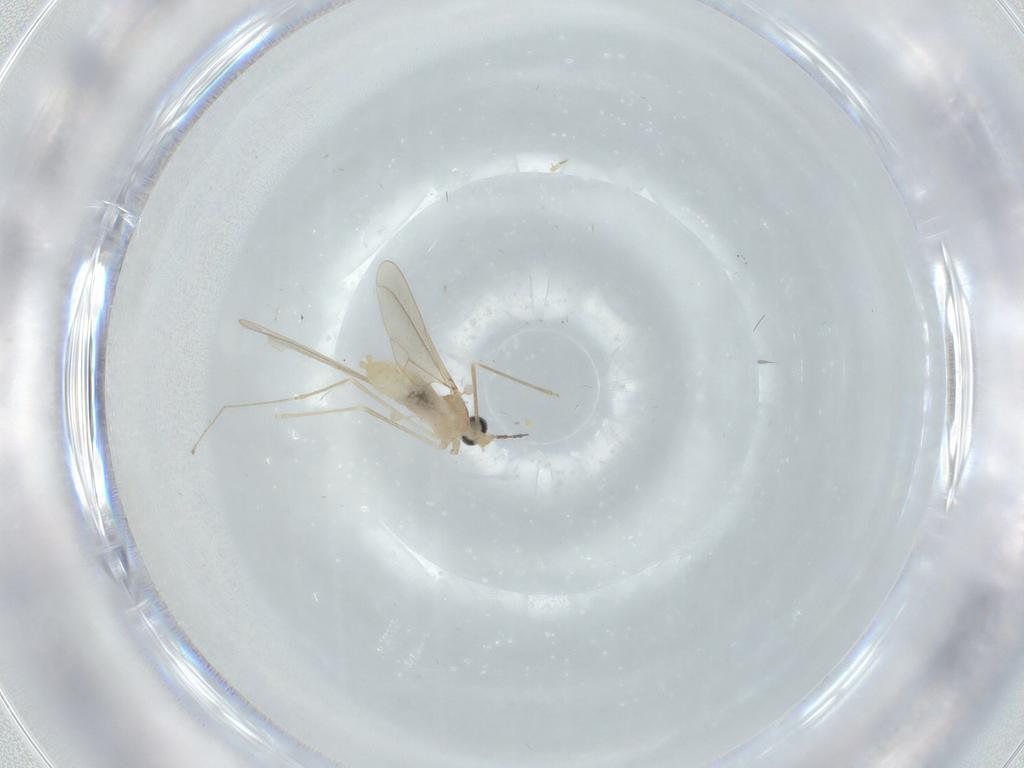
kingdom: Animalia
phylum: Arthropoda
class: Insecta
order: Diptera
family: Cecidomyiidae
